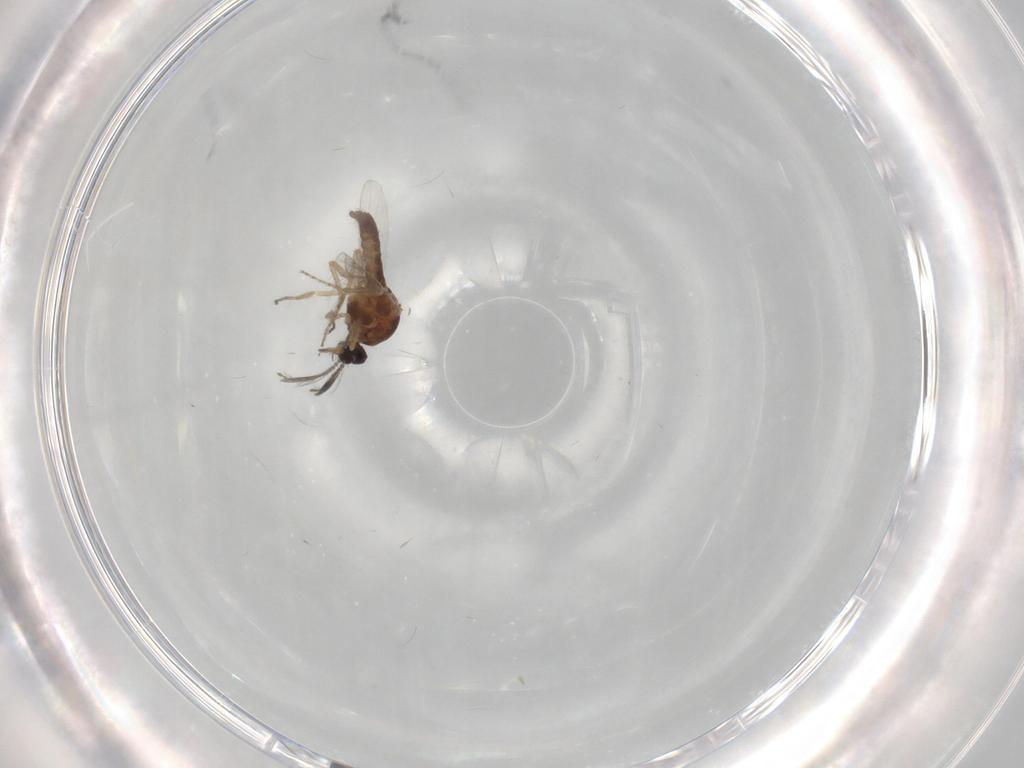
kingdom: Animalia
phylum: Arthropoda
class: Insecta
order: Diptera
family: Ceratopogonidae
